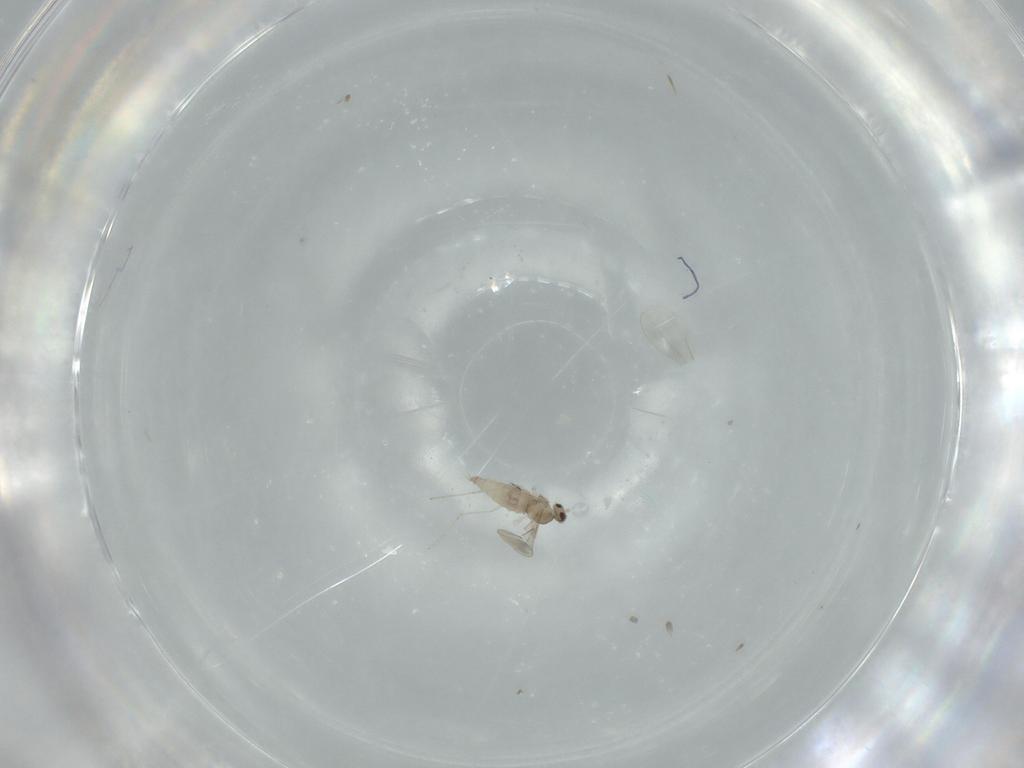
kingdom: Animalia
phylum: Arthropoda
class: Insecta
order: Diptera
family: Cecidomyiidae
